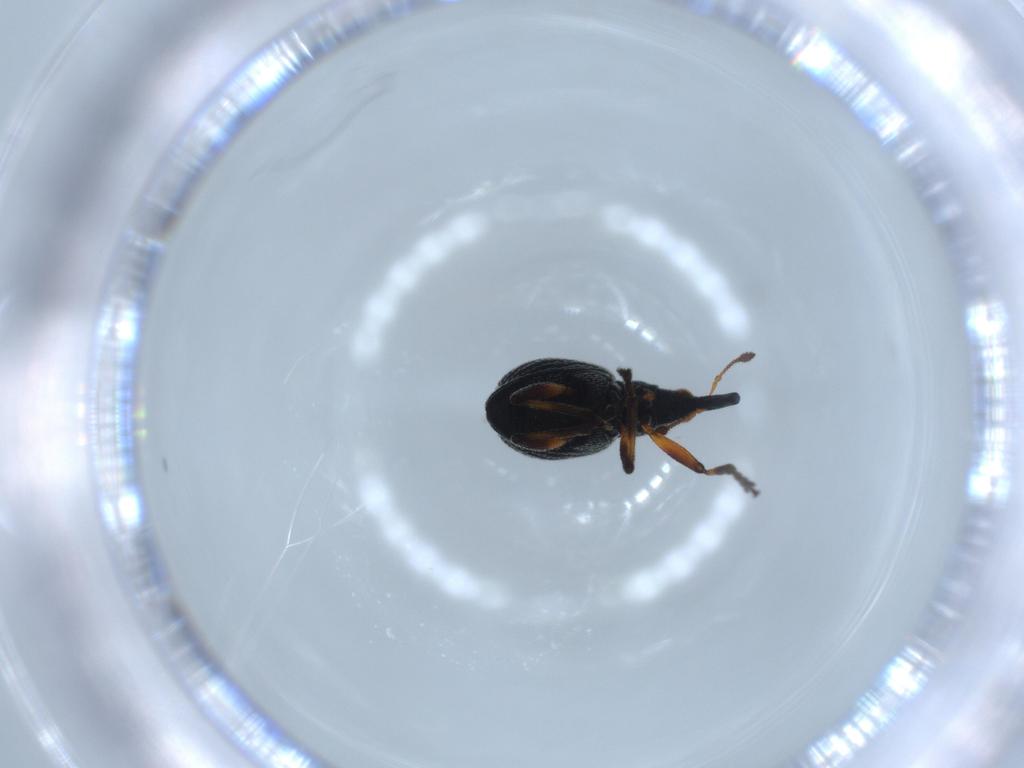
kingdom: Animalia
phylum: Arthropoda
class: Insecta
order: Coleoptera
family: Brentidae
